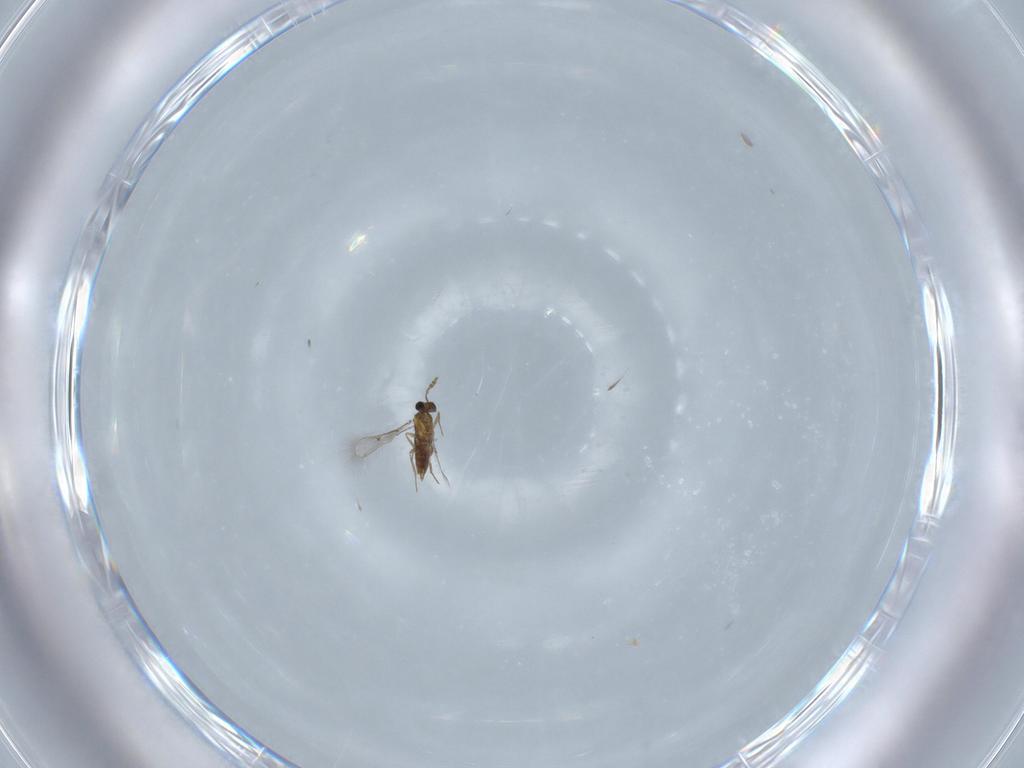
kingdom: Animalia
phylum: Arthropoda
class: Insecta
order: Hymenoptera
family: Trichogrammatidae
